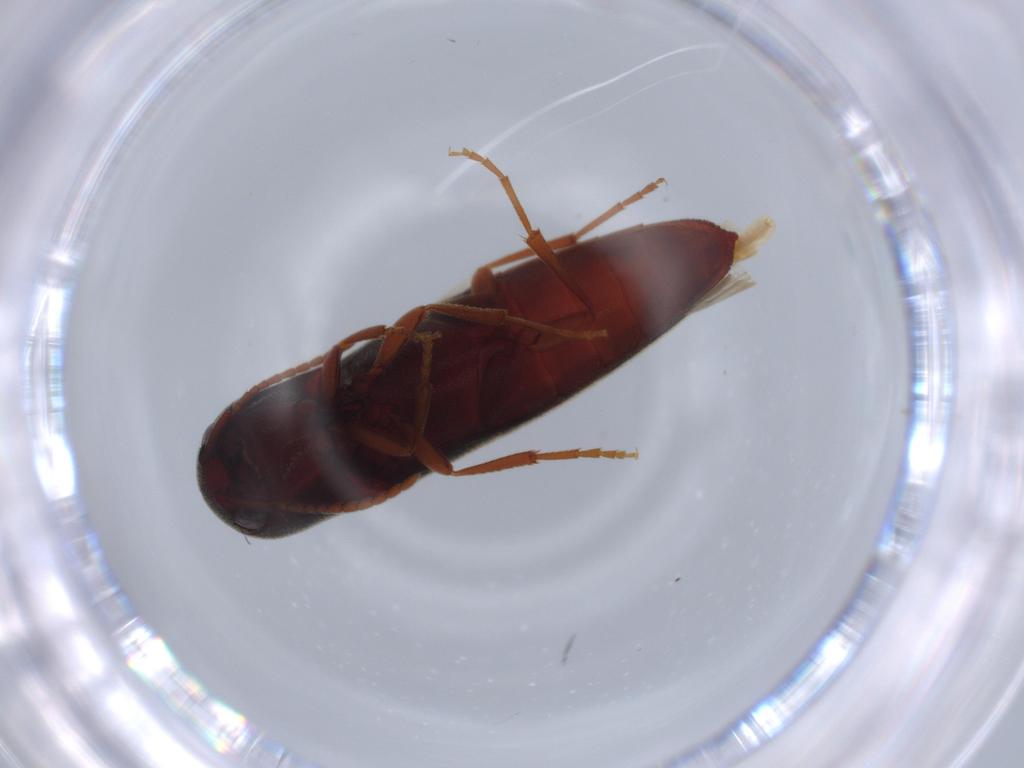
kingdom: Animalia
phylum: Arthropoda
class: Insecta
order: Coleoptera
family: Eucnemidae
